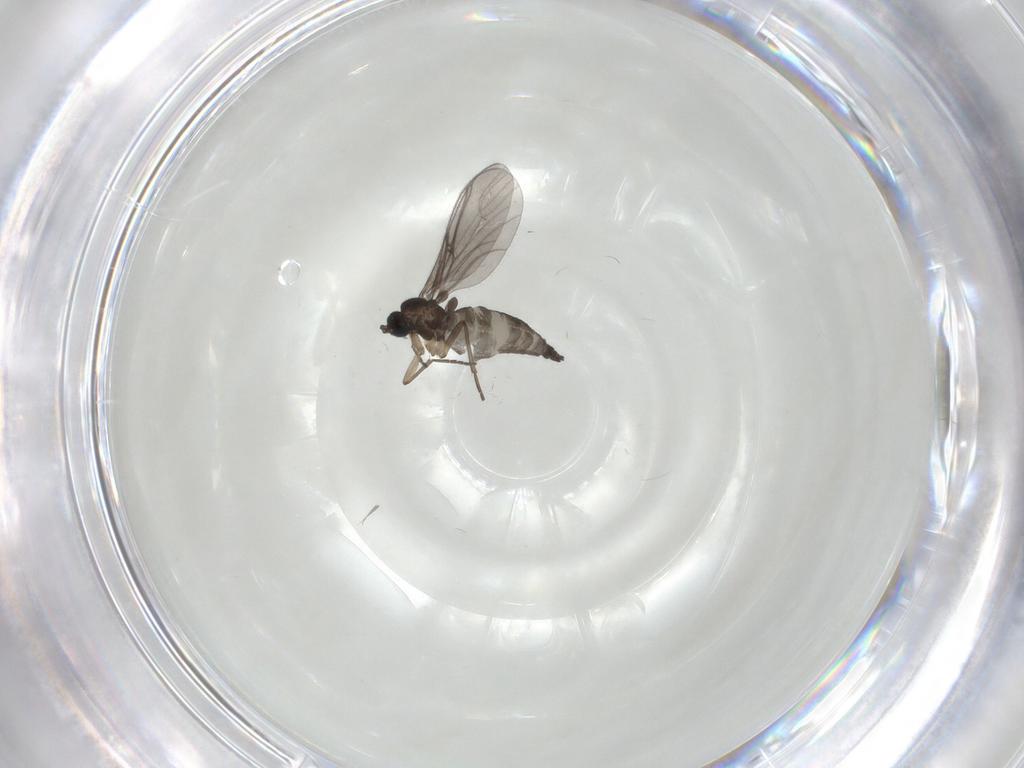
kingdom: Animalia
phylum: Arthropoda
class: Insecta
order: Diptera
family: Sciaridae
